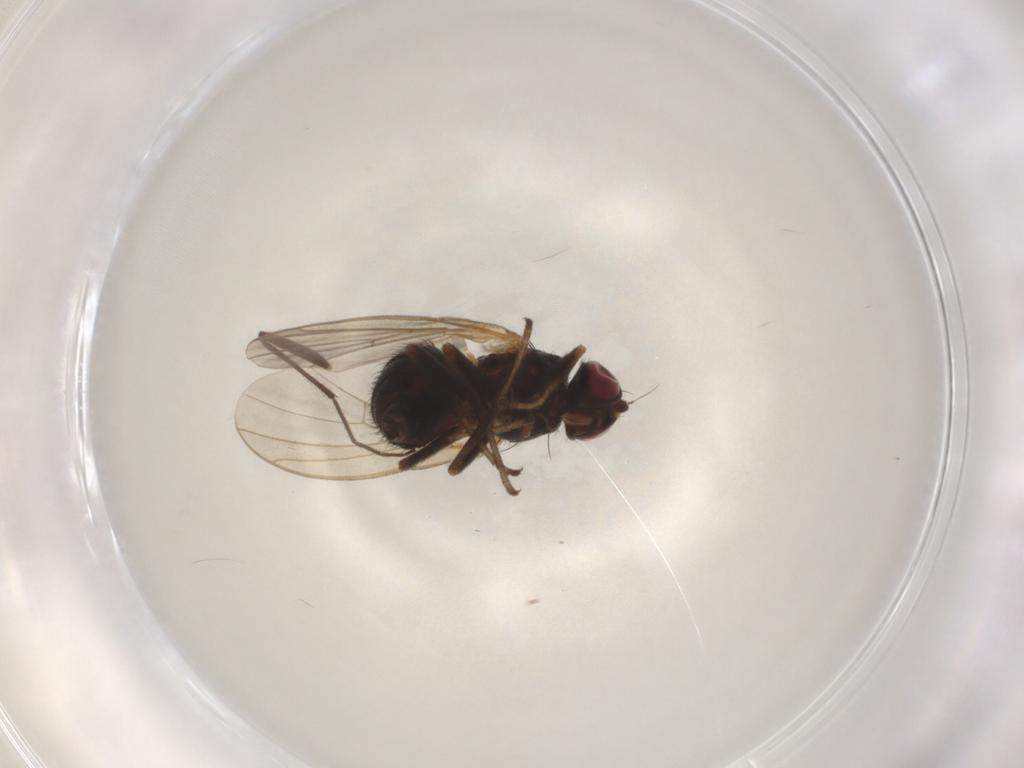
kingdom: Animalia
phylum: Arthropoda
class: Insecta
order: Diptera
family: Agromyzidae
